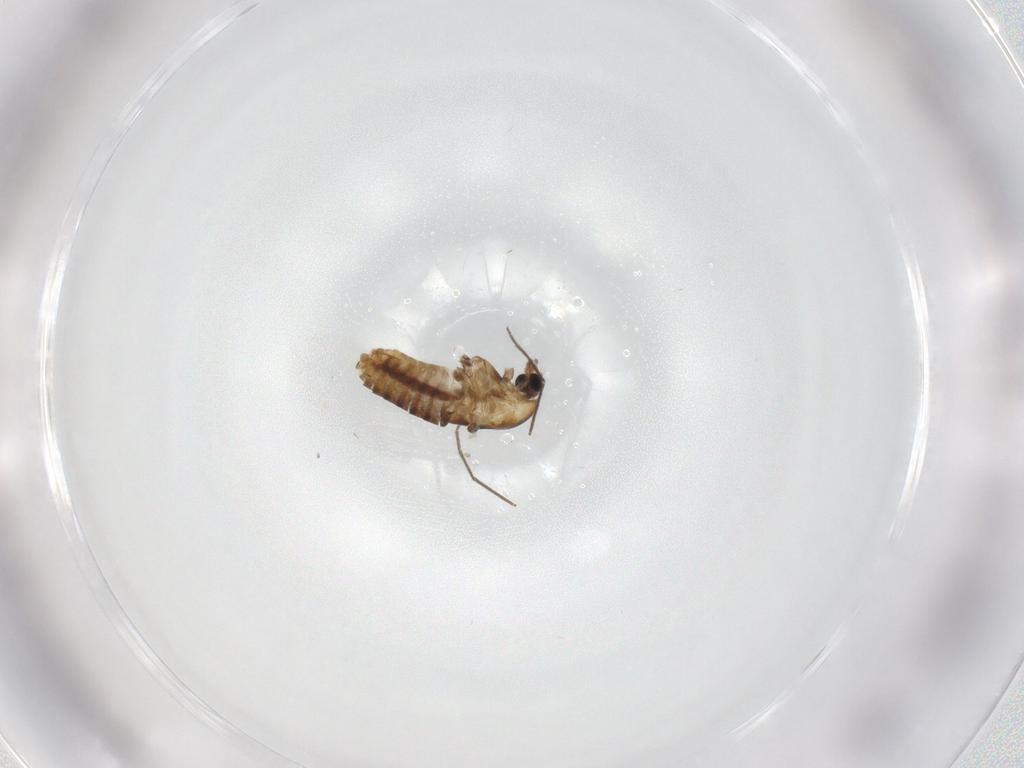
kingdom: Animalia
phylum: Arthropoda
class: Insecta
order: Diptera
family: Chironomidae
